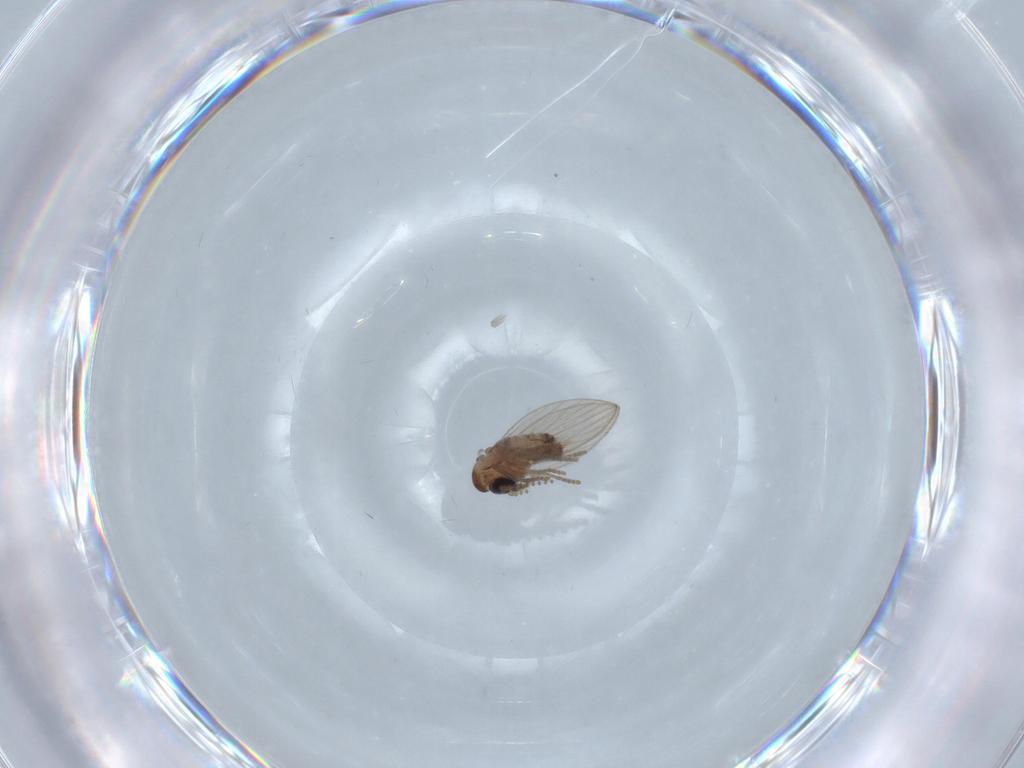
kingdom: Animalia
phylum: Arthropoda
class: Insecta
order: Diptera
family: Psychodidae
